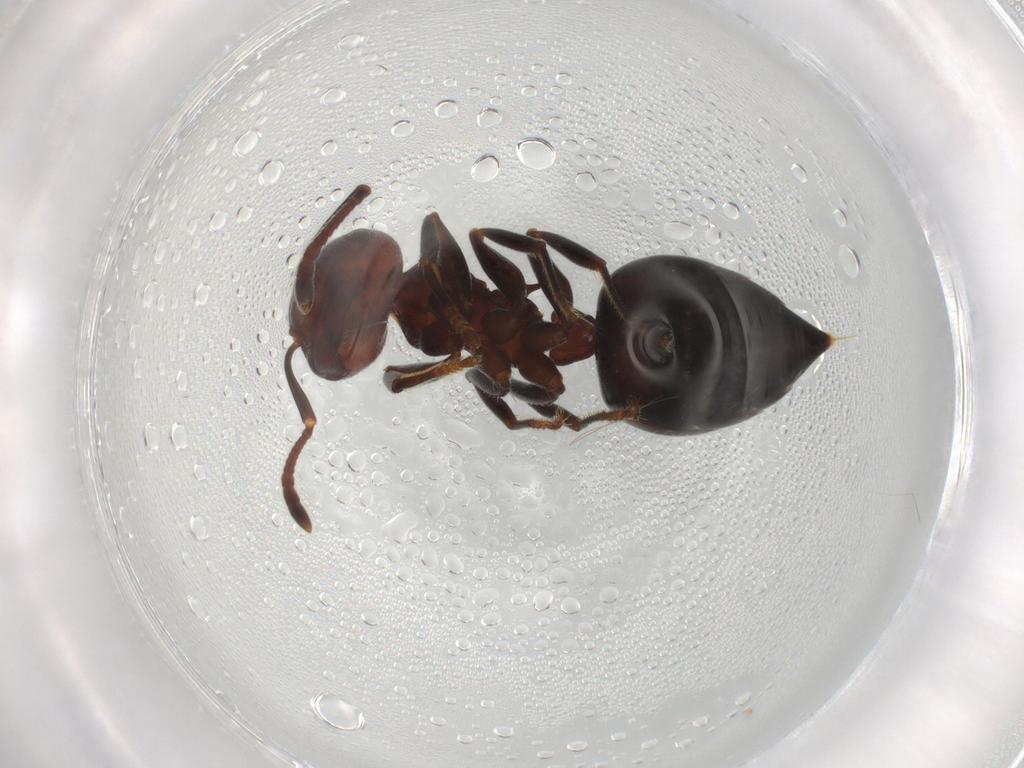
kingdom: Animalia
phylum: Arthropoda
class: Insecta
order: Hymenoptera
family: Formicidae
